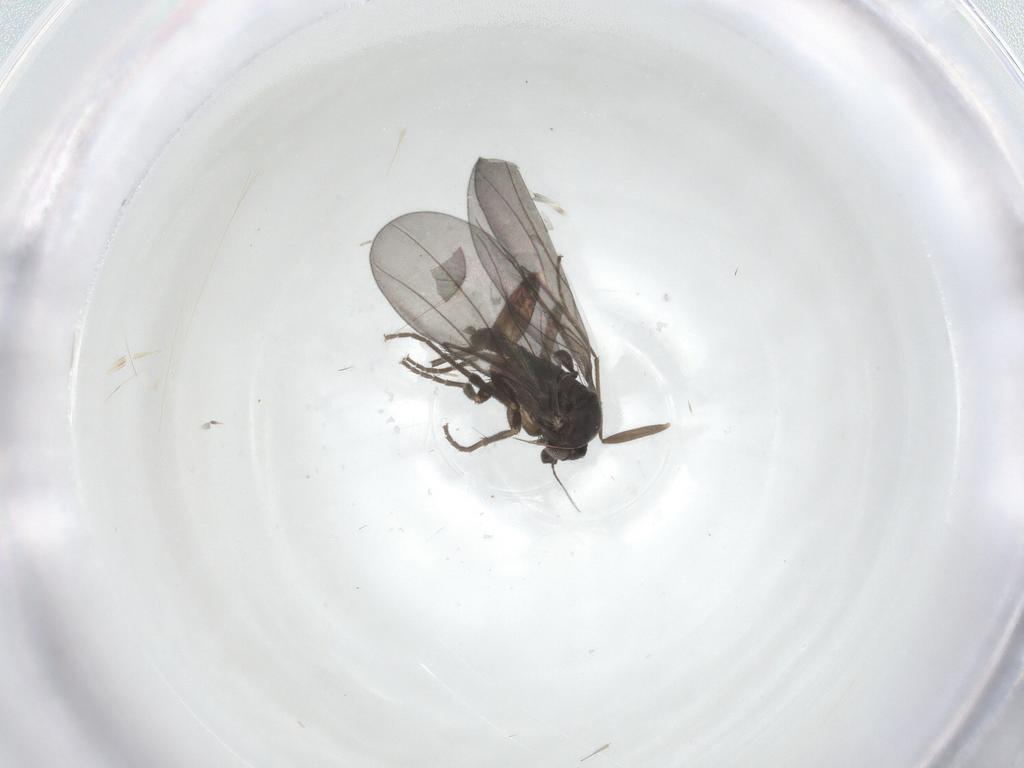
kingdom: Animalia
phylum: Arthropoda
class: Insecta
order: Diptera
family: Phoridae
